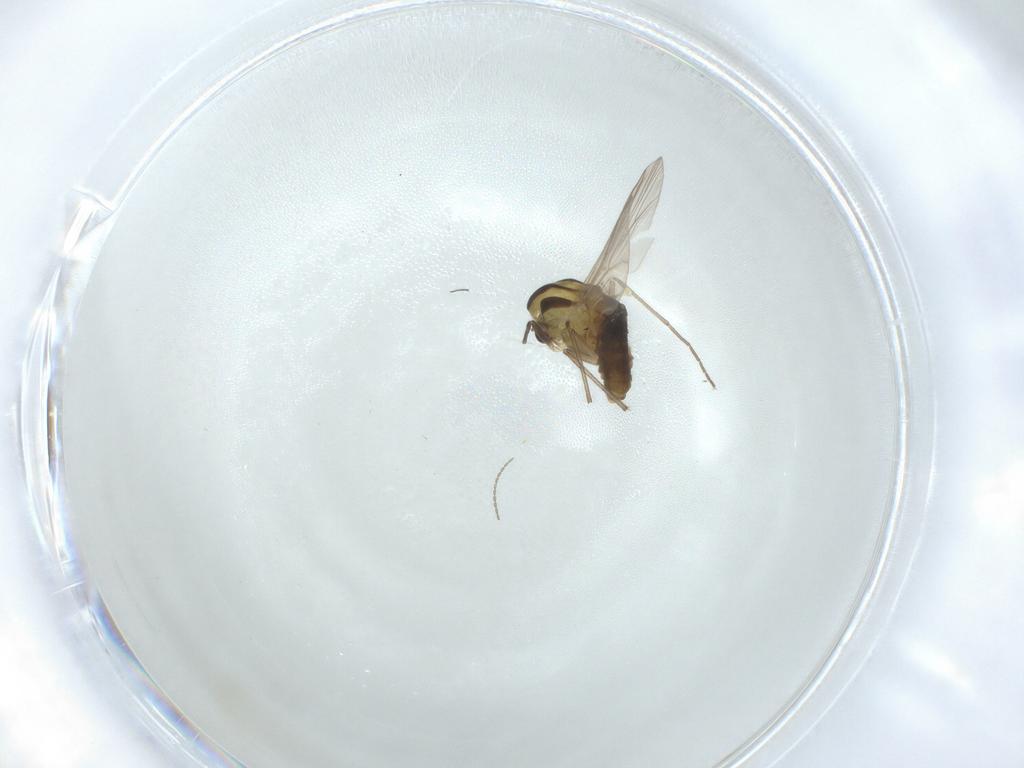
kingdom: Animalia
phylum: Arthropoda
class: Insecta
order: Diptera
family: Chironomidae
